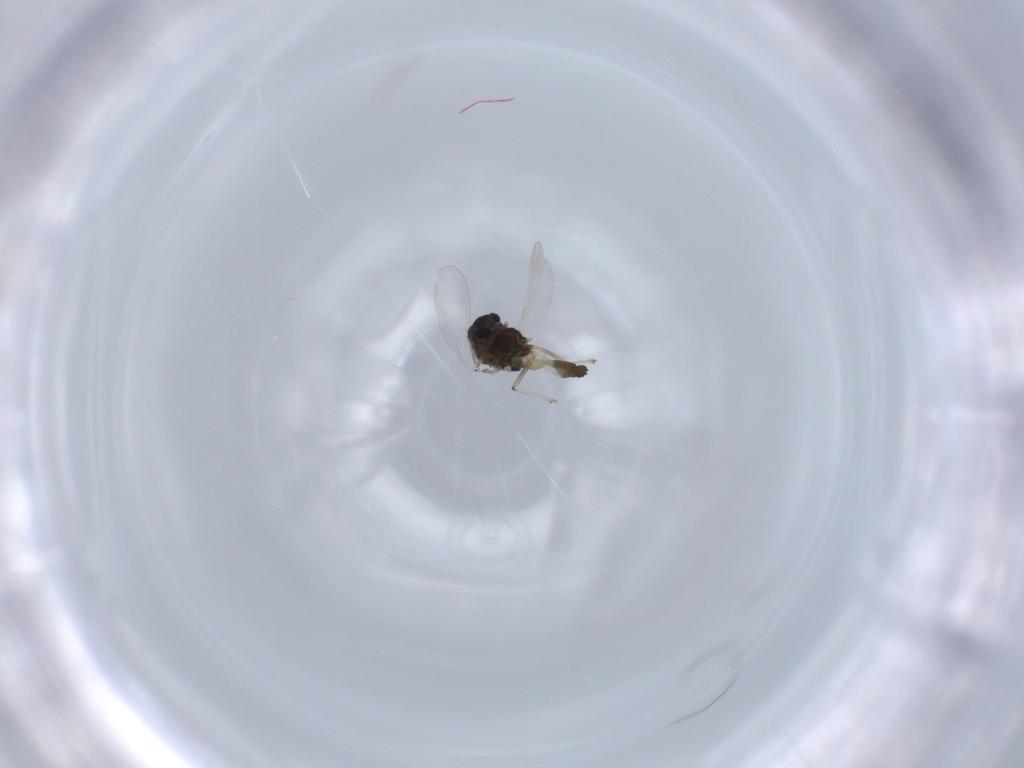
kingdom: Animalia
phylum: Arthropoda
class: Insecta
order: Diptera
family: Chironomidae
